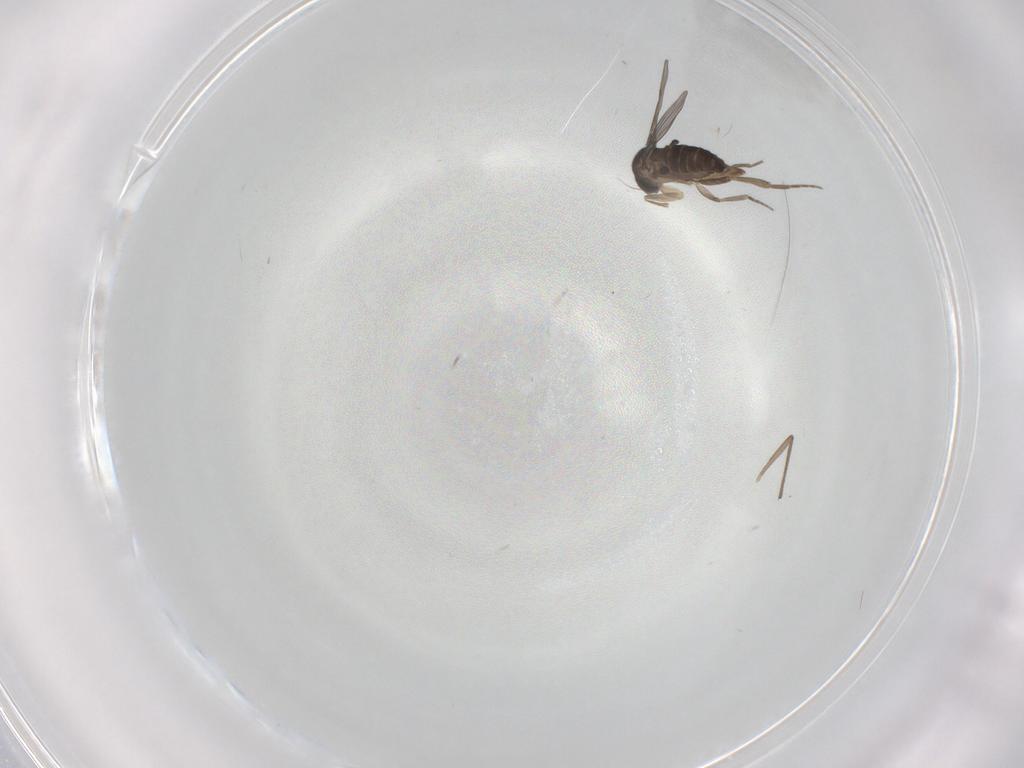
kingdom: Animalia
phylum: Arthropoda
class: Insecta
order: Diptera
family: Phoridae
